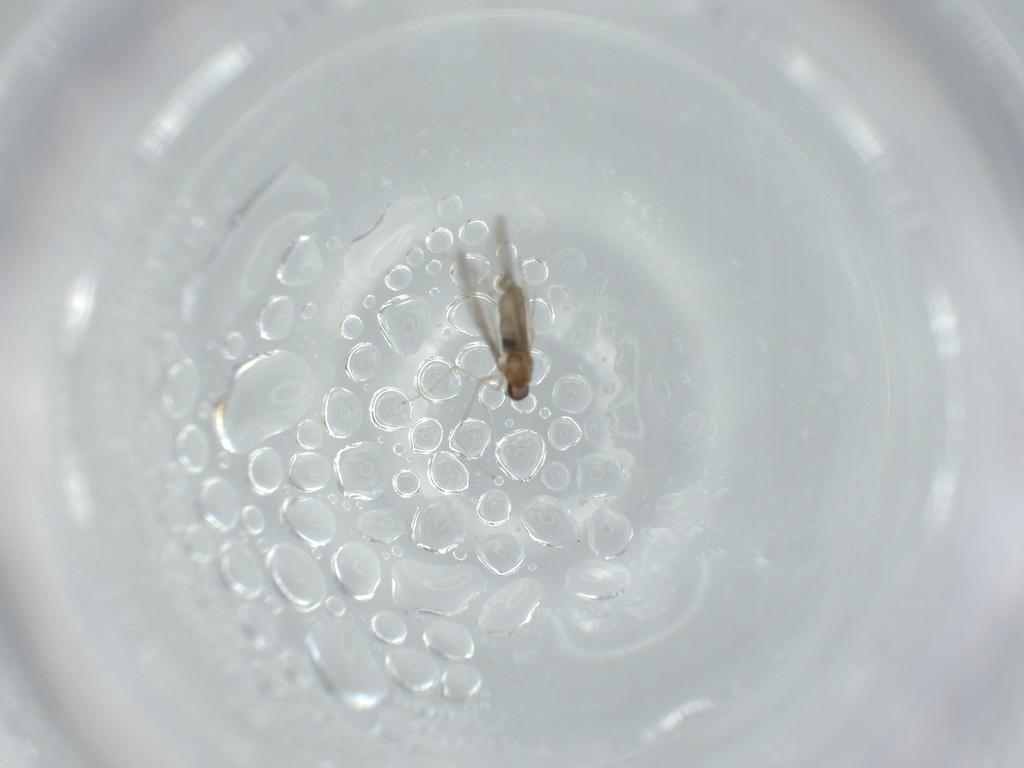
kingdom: Animalia
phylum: Arthropoda
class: Insecta
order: Diptera
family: Cecidomyiidae
